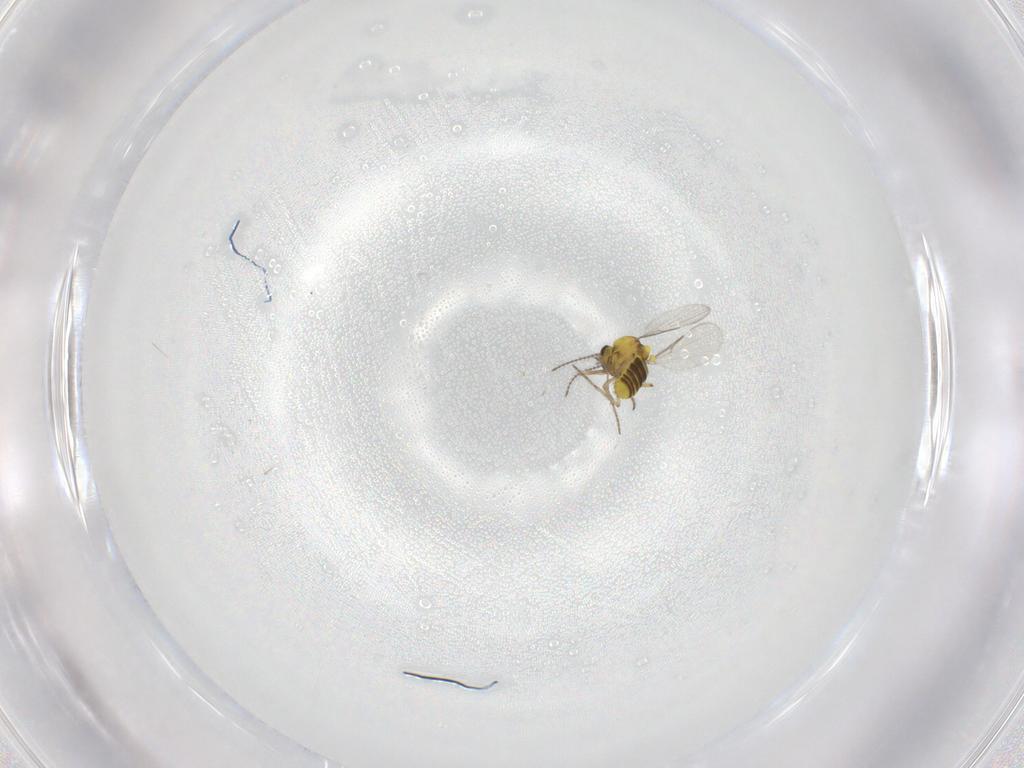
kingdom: Animalia
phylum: Arthropoda
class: Insecta
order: Diptera
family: Ceratopogonidae
